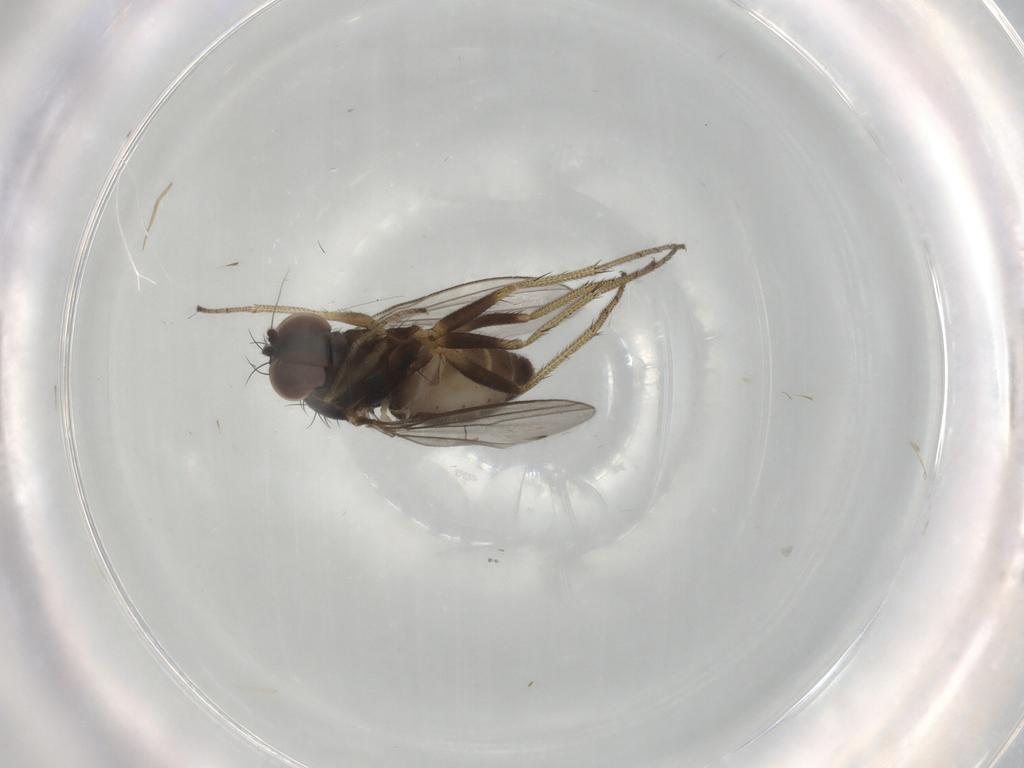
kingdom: Animalia
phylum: Arthropoda
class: Insecta
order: Diptera
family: Dolichopodidae
